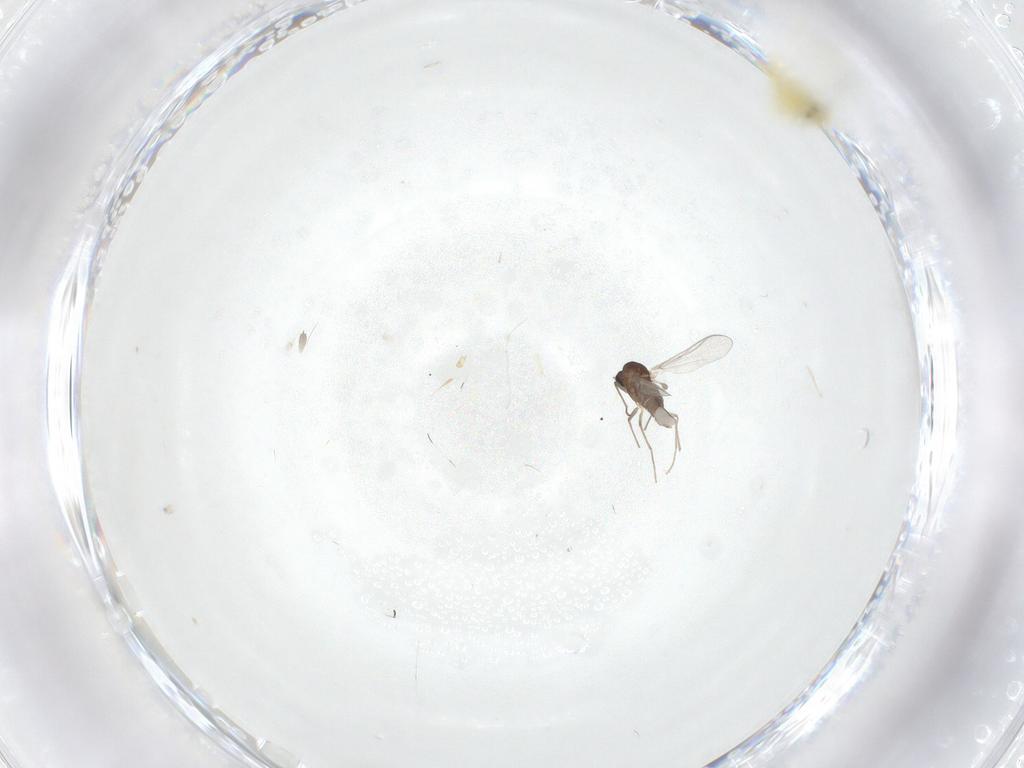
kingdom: Animalia
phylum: Arthropoda
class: Insecta
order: Diptera
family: Chironomidae
